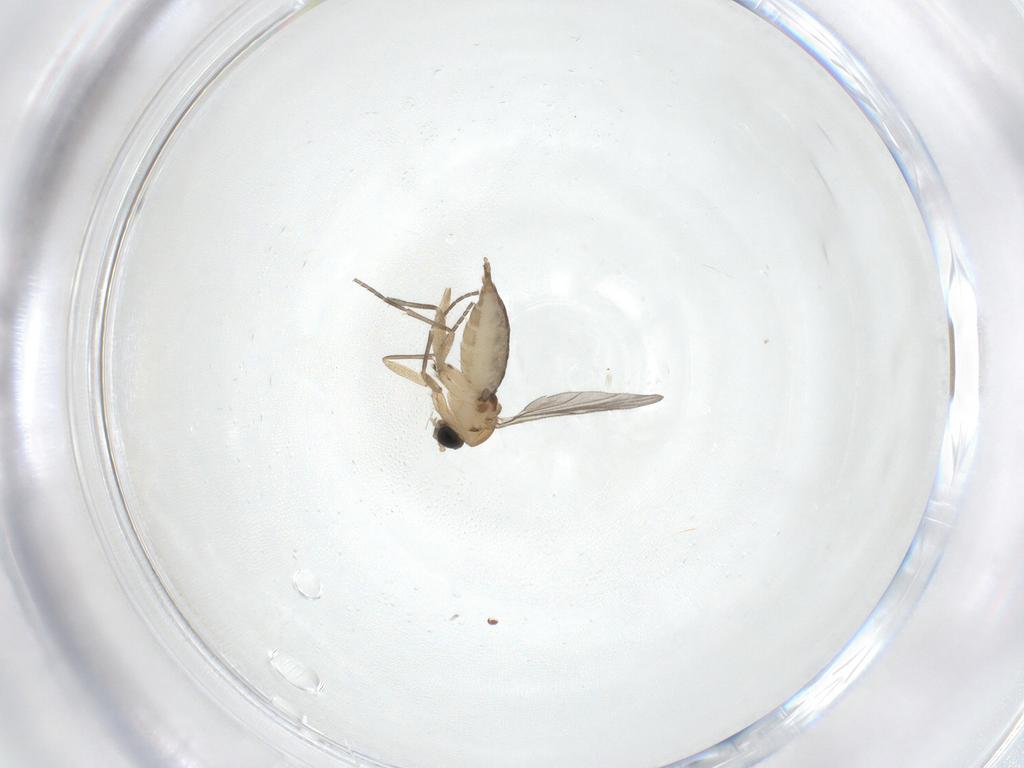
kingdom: Animalia
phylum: Arthropoda
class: Insecta
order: Diptera
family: Sciaridae
